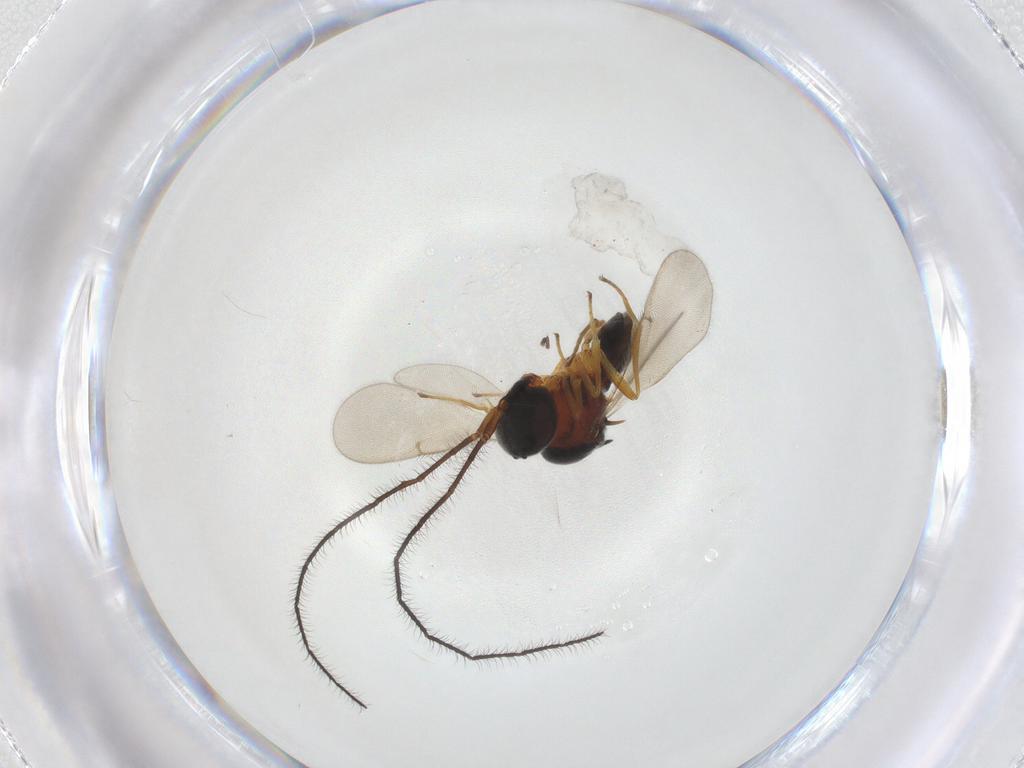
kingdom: Animalia
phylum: Arthropoda
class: Insecta
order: Hymenoptera
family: Scelionidae
